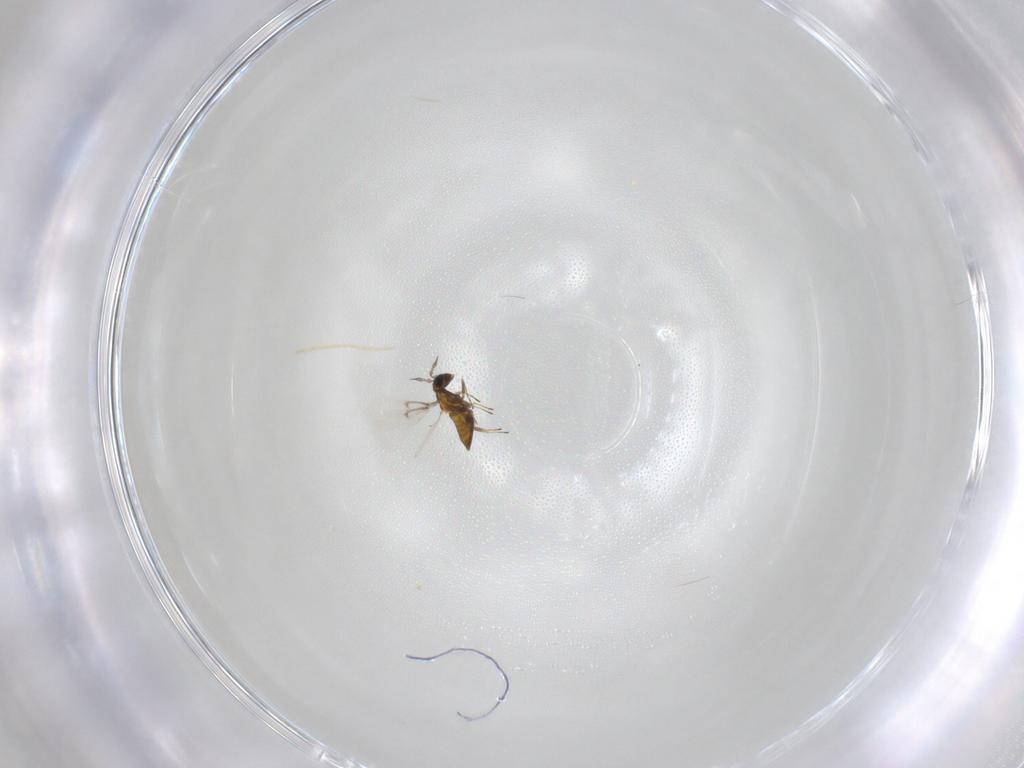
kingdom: Animalia
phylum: Arthropoda
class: Insecta
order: Hymenoptera
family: Trichogrammatidae
